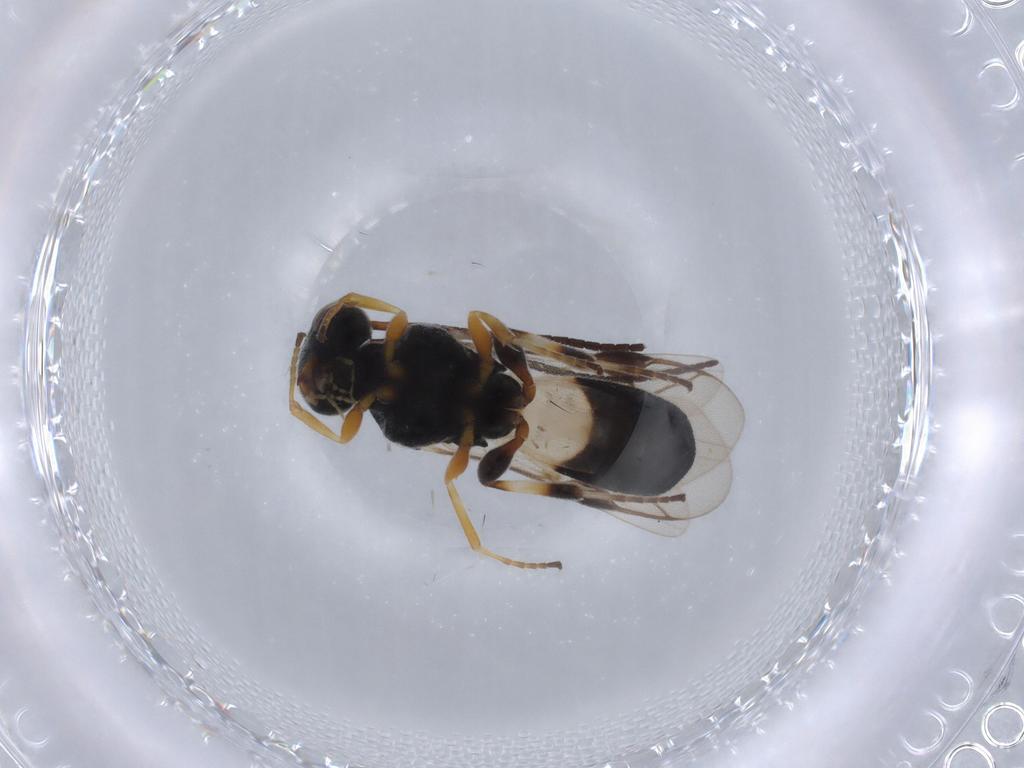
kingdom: Animalia
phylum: Arthropoda
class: Insecta
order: Hymenoptera
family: Braconidae
